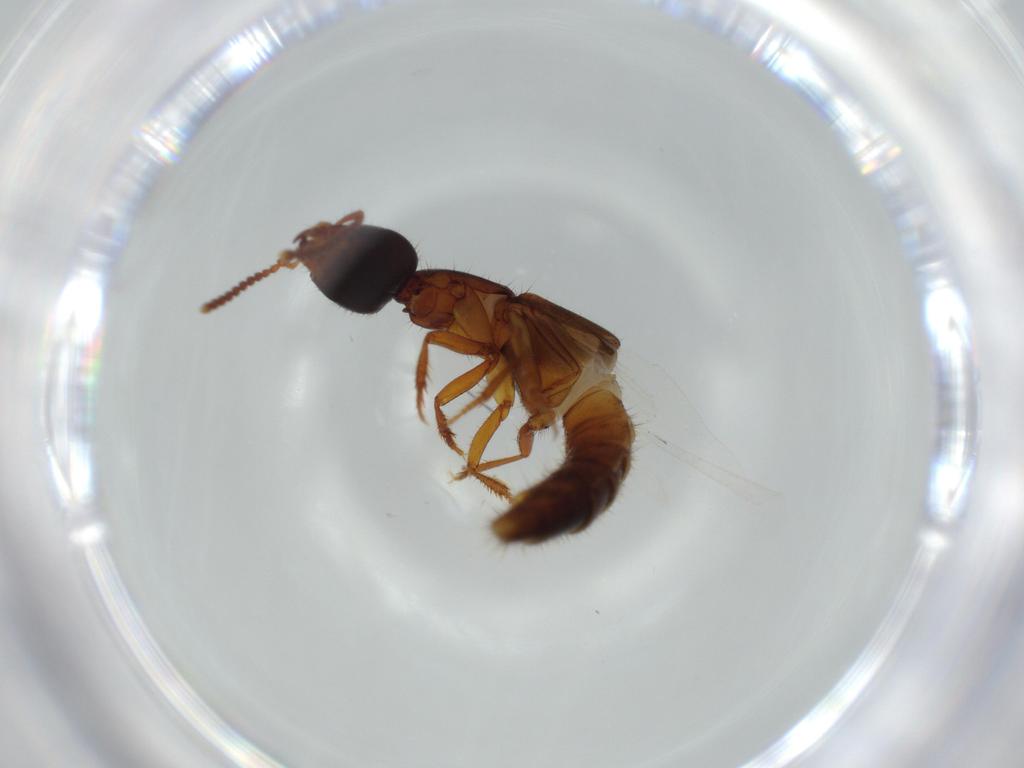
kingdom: Animalia
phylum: Arthropoda
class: Insecta
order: Coleoptera
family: Staphylinidae
